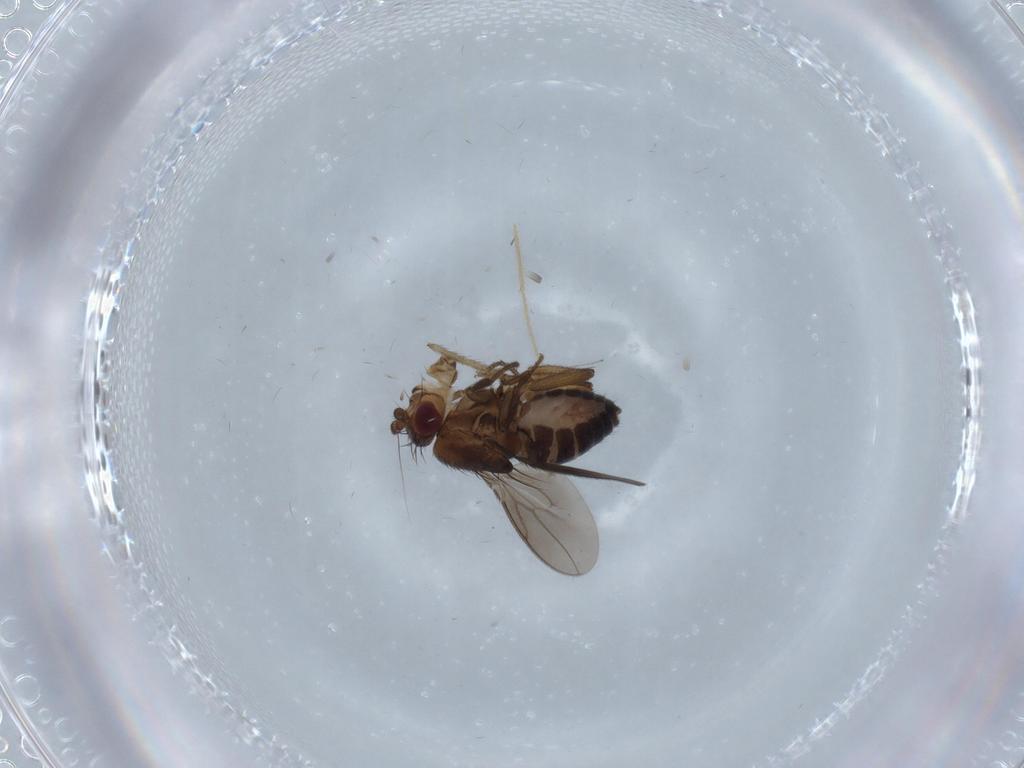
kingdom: Animalia
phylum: Arthropoda
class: Insecta
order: Diptera
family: Sphaeroceridae
